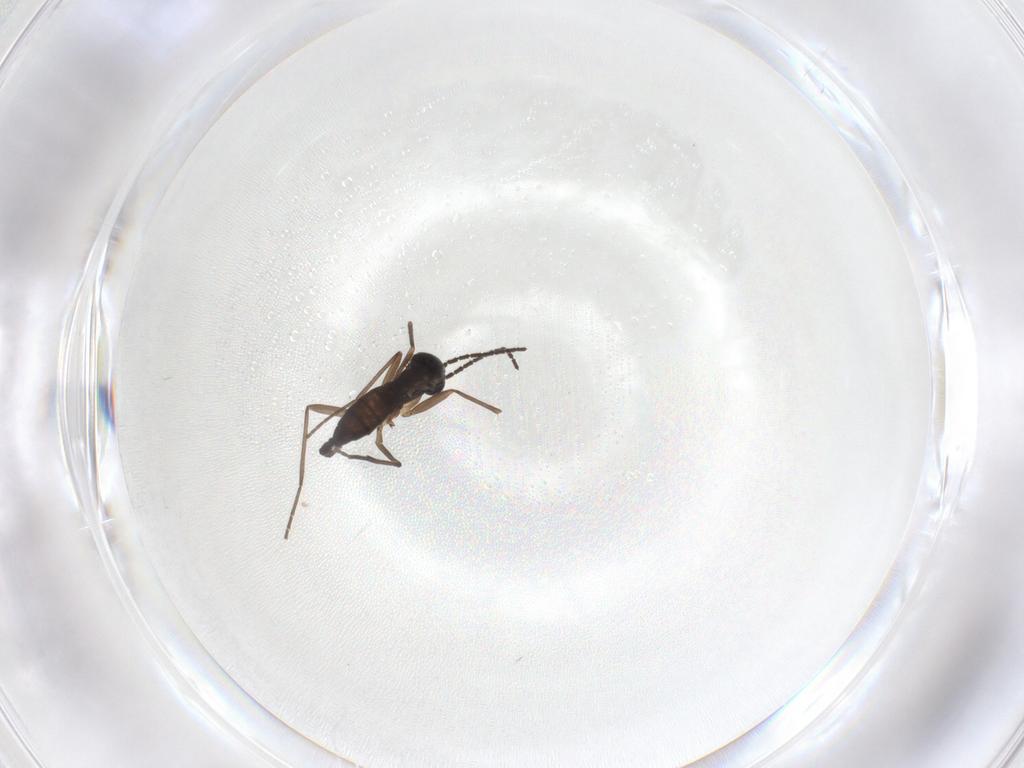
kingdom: Animalia
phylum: Arthropoda
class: Insecta
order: Diptera
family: Sciaridae
